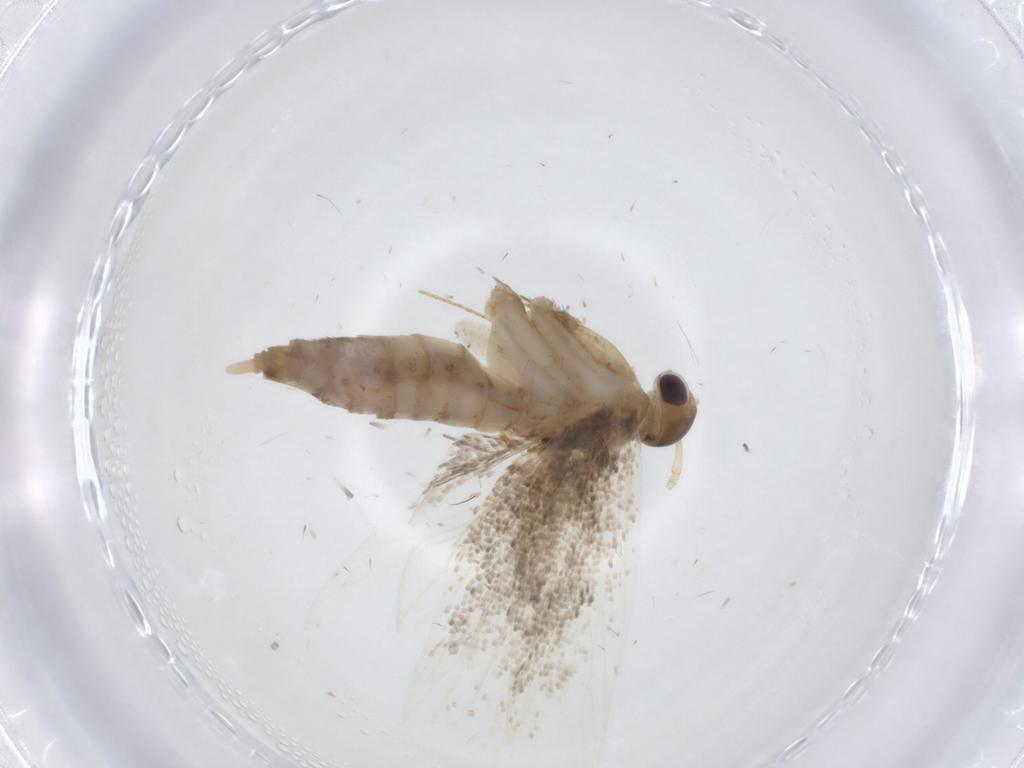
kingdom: Animalia
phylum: Arthropoda
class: Insecta
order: Lepidoptera
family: Lecithoceridae
